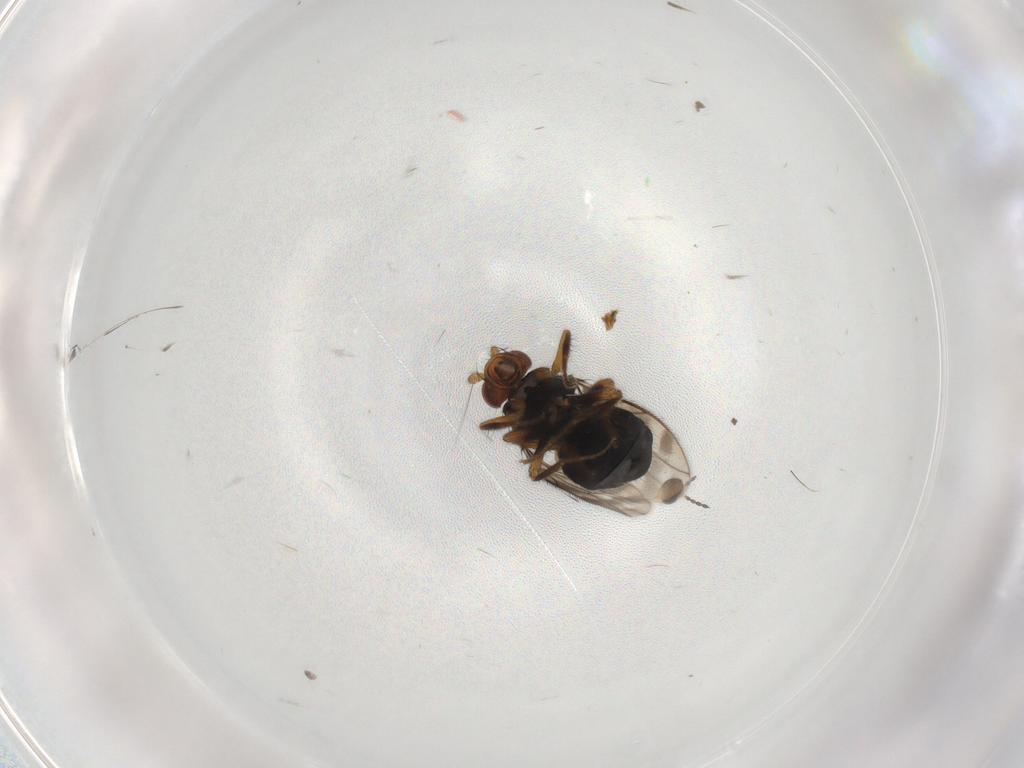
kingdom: Animalia
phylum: Arthropoda
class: Insecta
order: Diptera
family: Sphaeroceridae
